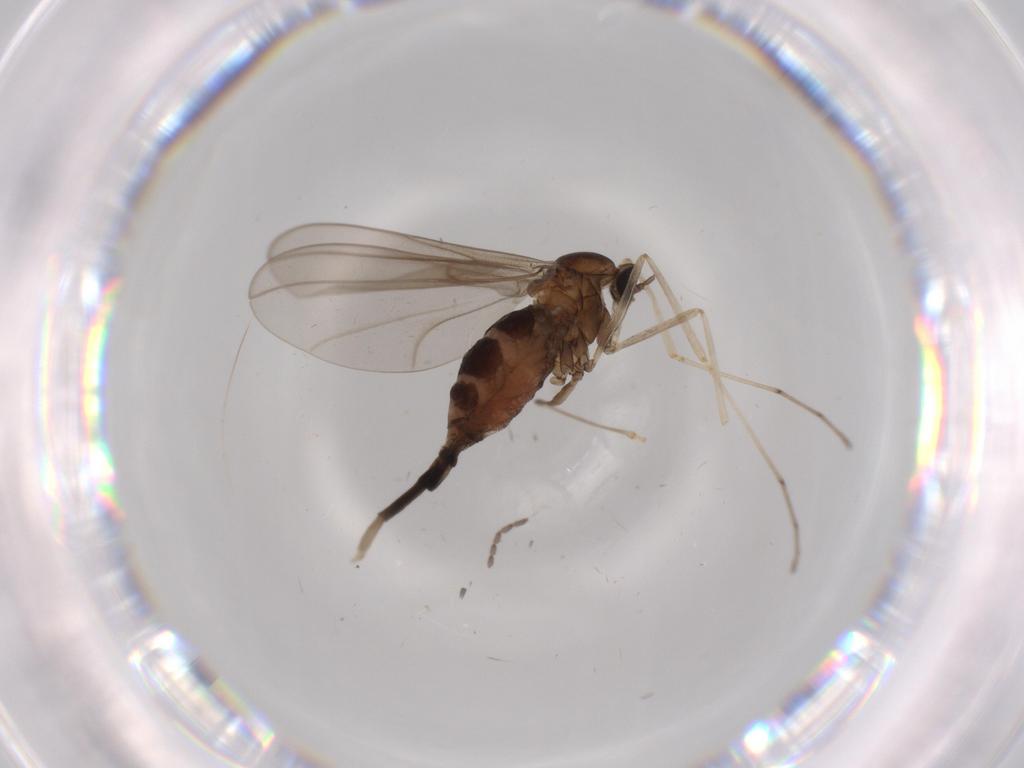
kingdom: Animalia
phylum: Arthropoda
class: Insecta
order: Diptera
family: Cecidomyiidae
